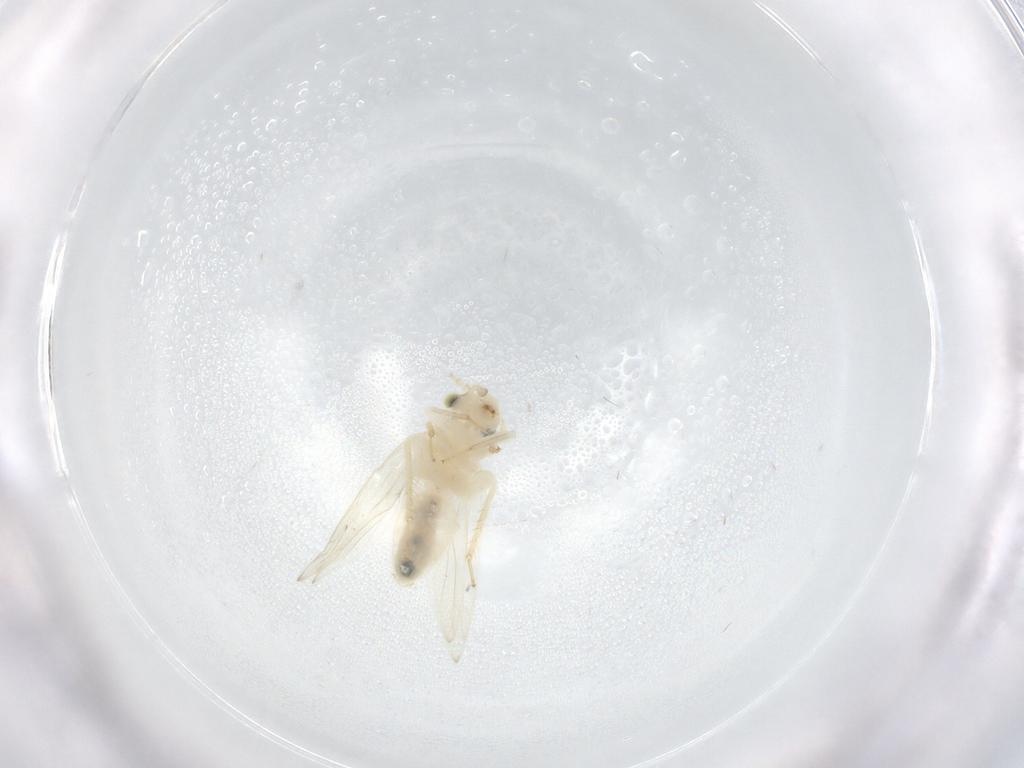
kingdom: Animalia
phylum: Arthropoda
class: Insecta
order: Psocodea
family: Lepidopsocidae
